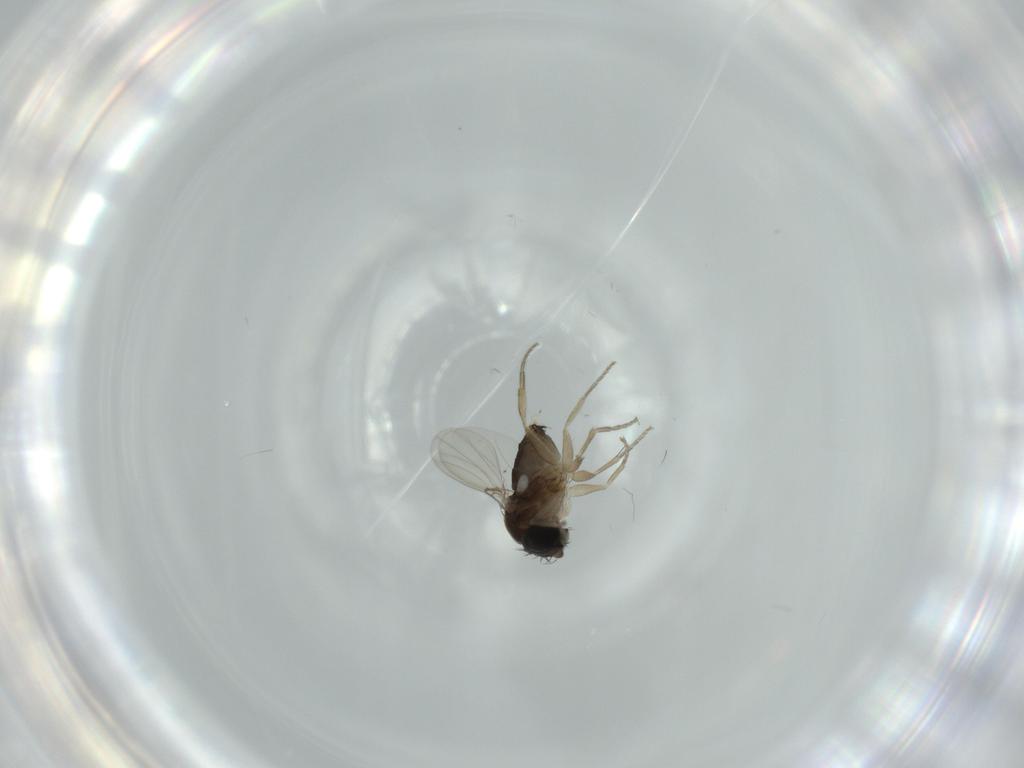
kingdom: Animalia
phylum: Arthropoda
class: Insecta
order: Diptera
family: Phoridae
